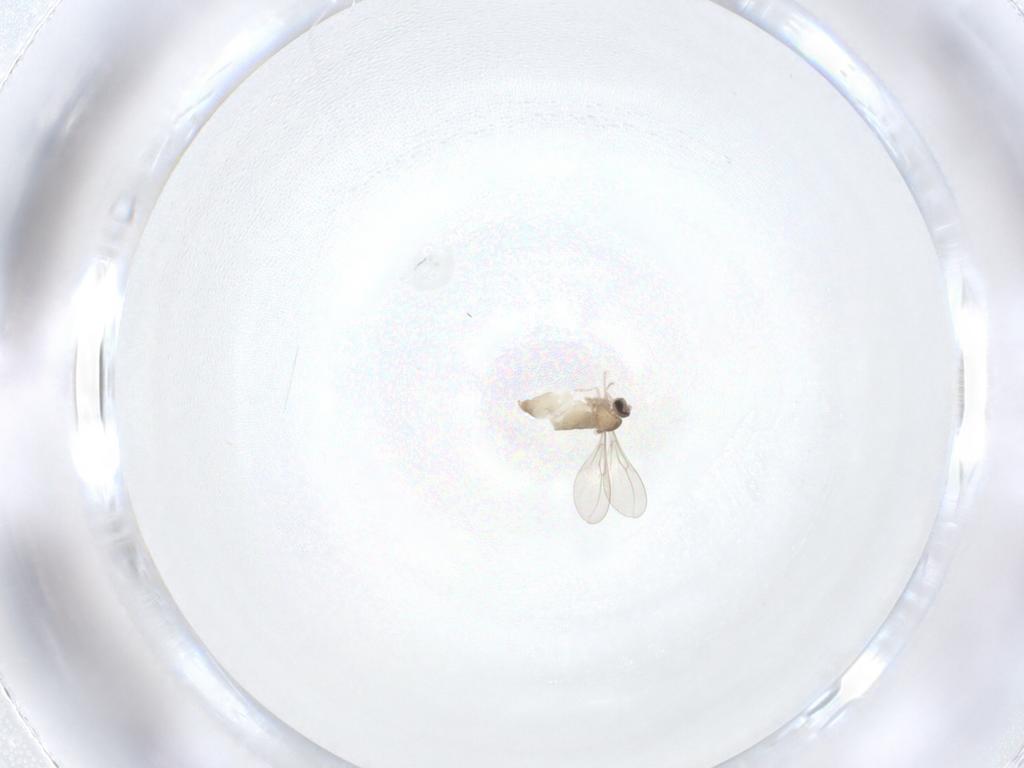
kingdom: Animalia
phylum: Arthropoda
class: Insecta
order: Diptera
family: Cecidomyiidae
